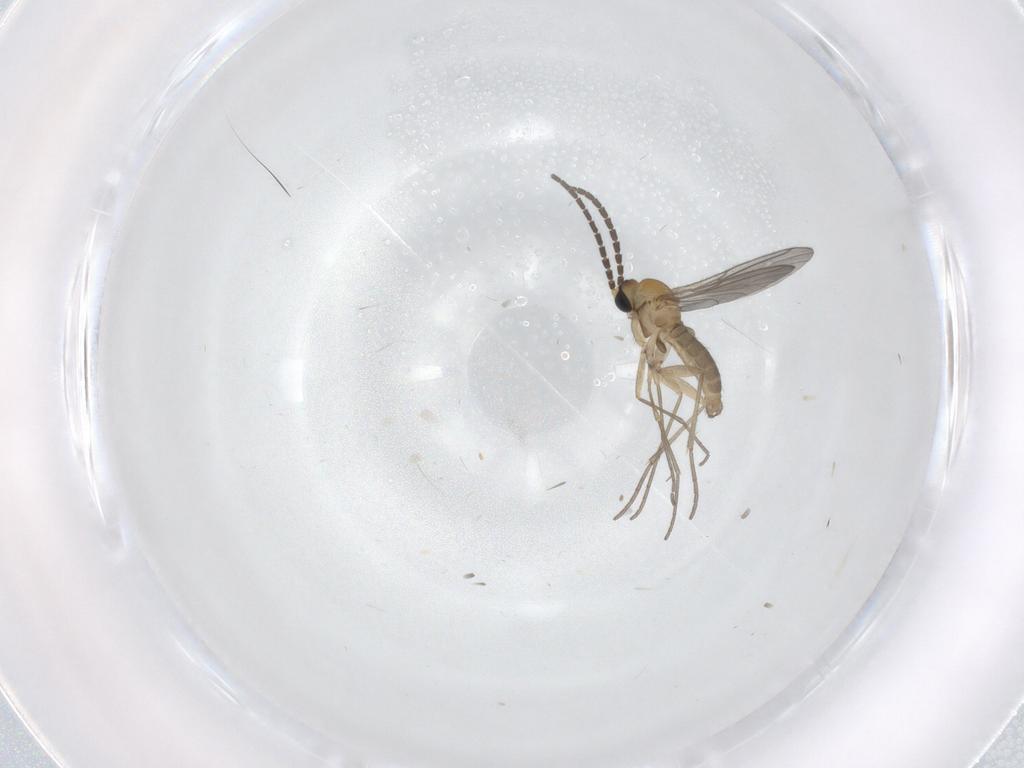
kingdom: Animalia
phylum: Arthropoda
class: Insecta
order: Diptera
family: Sciaridae
